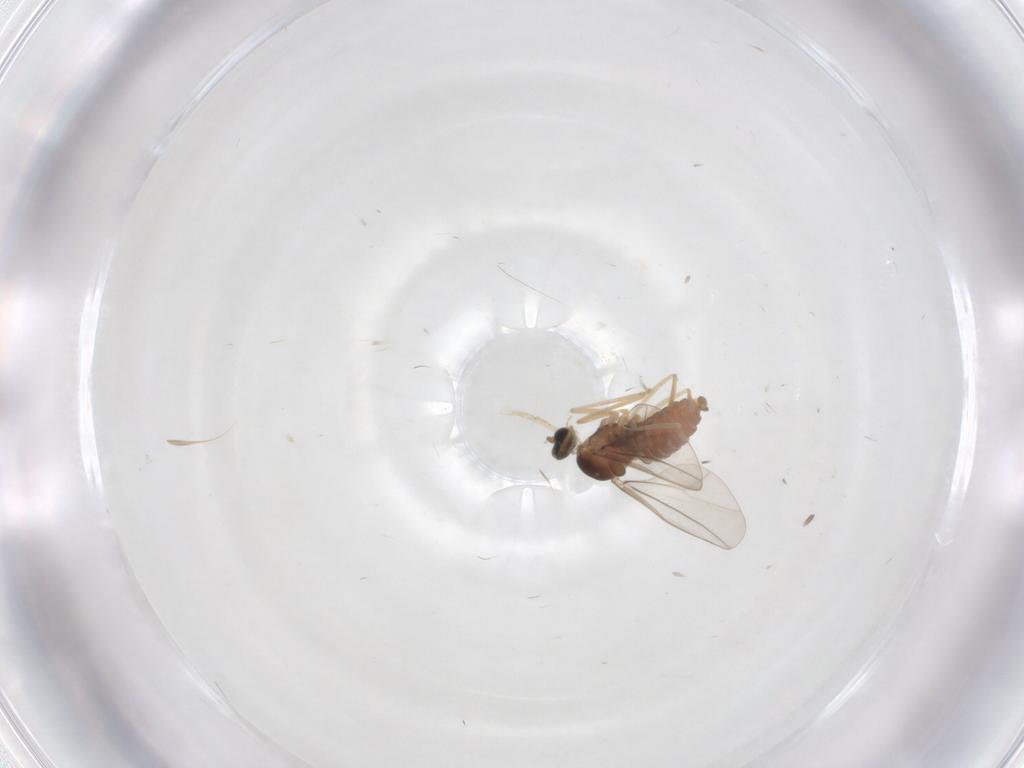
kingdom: Animalia
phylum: Arthropoda
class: Insecta
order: Diptera
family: Cecidomyiidae
